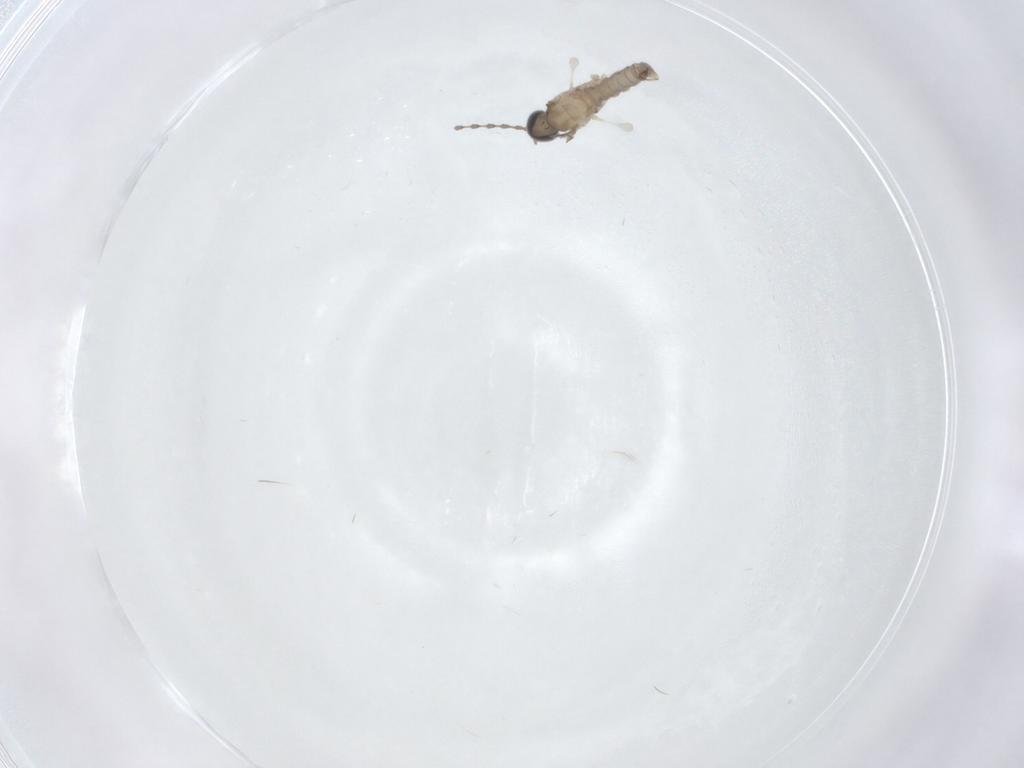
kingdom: Animalia
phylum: Arthropoda
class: Insecta
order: Diptera
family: Cecidomyiidae
